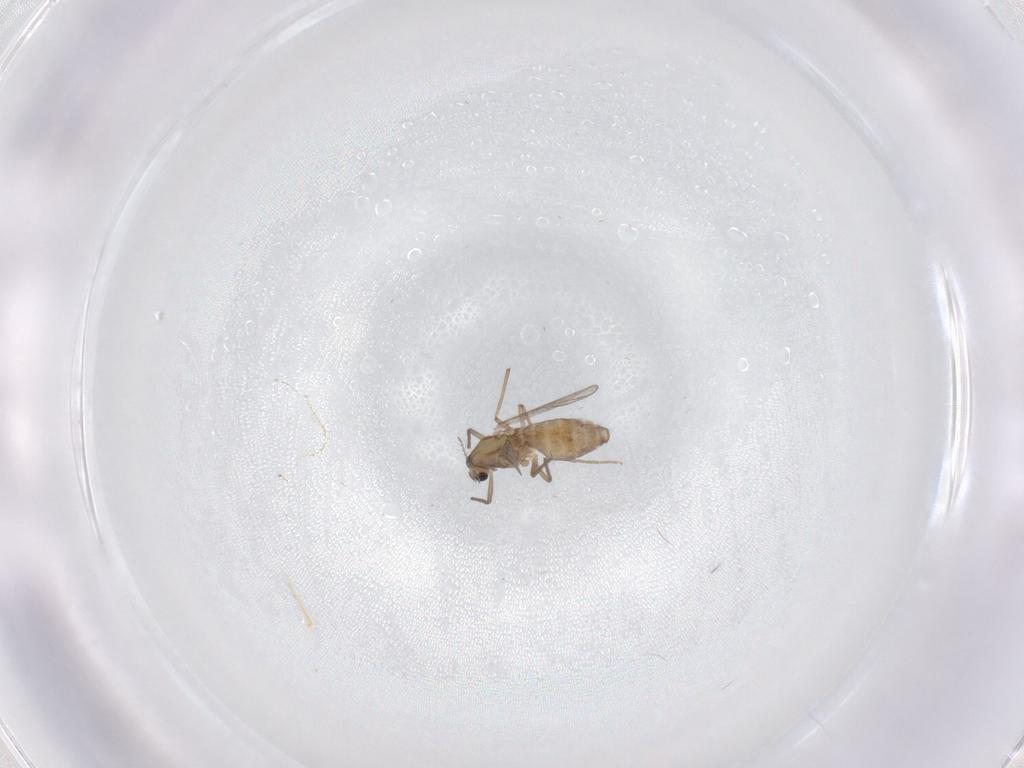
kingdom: Animalia
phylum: Arthropoda
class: Insecta
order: Diptera
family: Chironomidae
